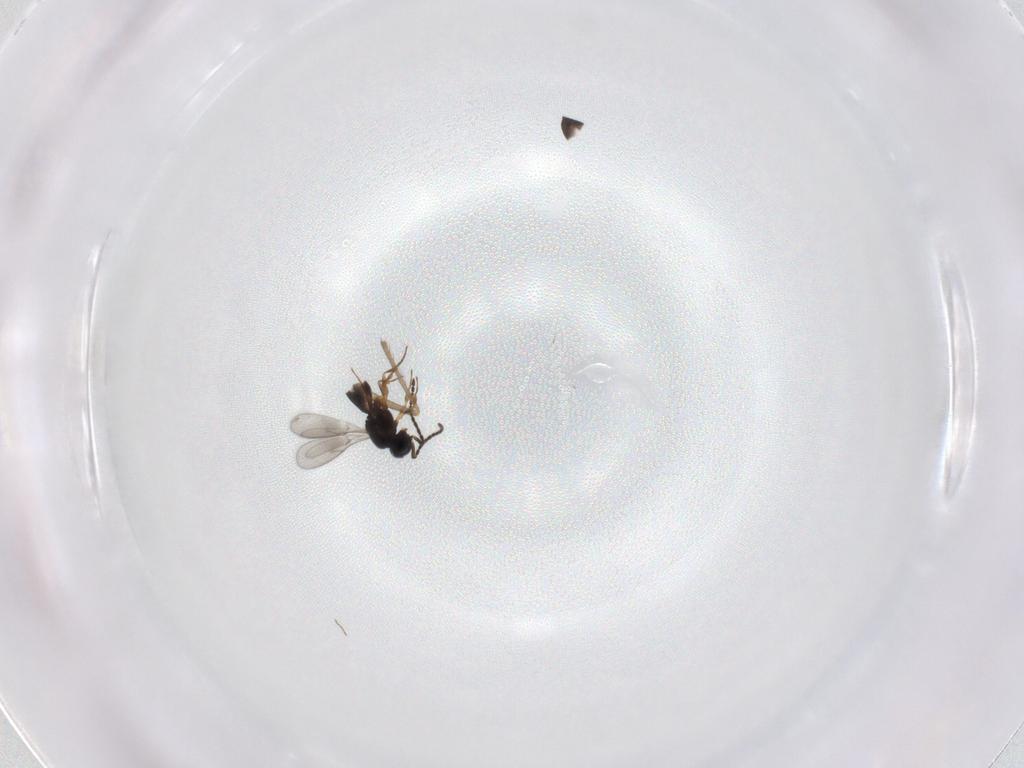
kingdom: Animalia
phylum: Arthropoda
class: Insecta
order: Hymenoptera
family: Scelionidae
